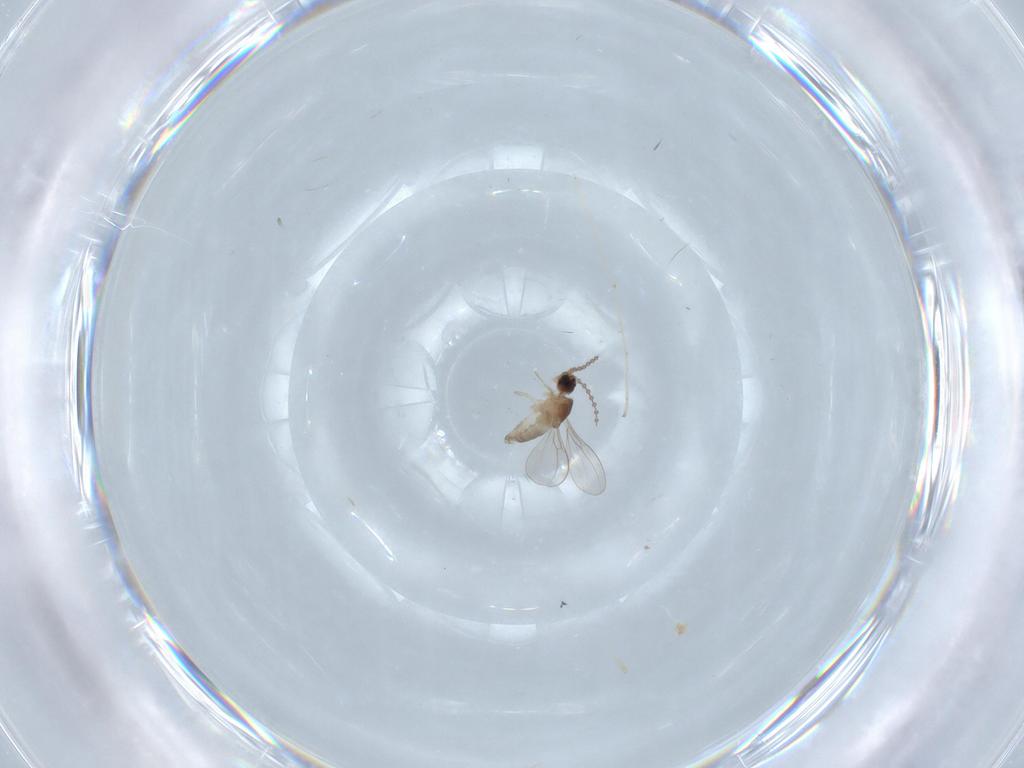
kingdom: Animalia
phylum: Arthropoda
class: Insecta
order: Diptera
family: Cecidomyiidae
